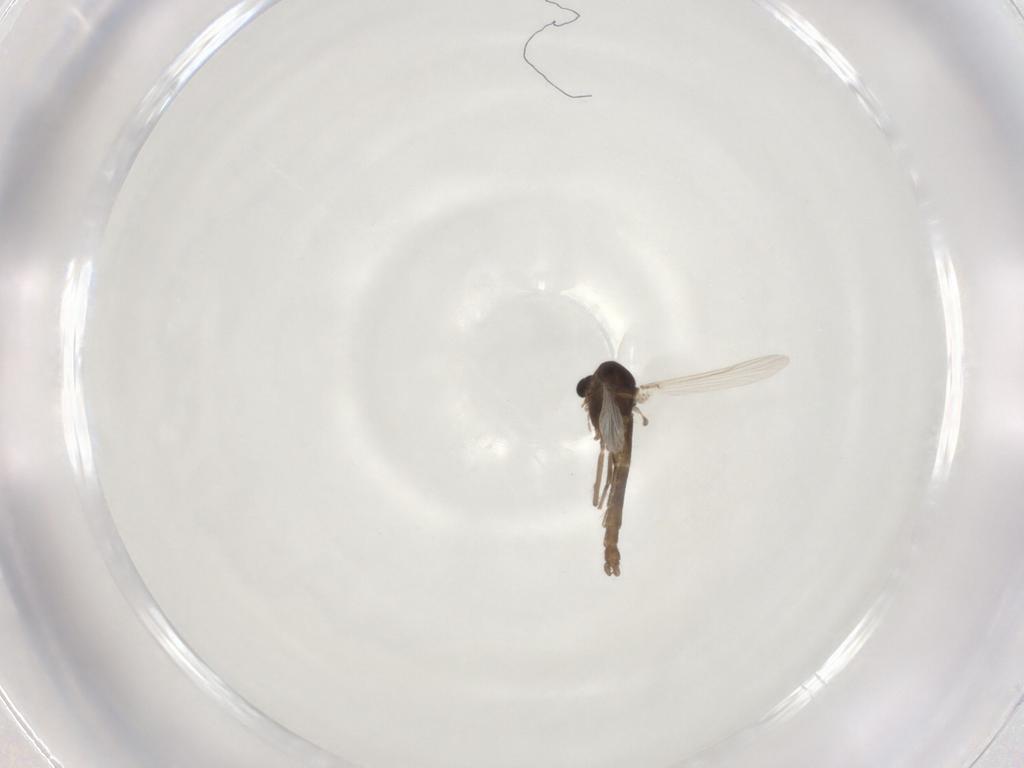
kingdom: Animalia
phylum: Arthropoda
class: Insecta
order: Diptera
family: Chironomidae
